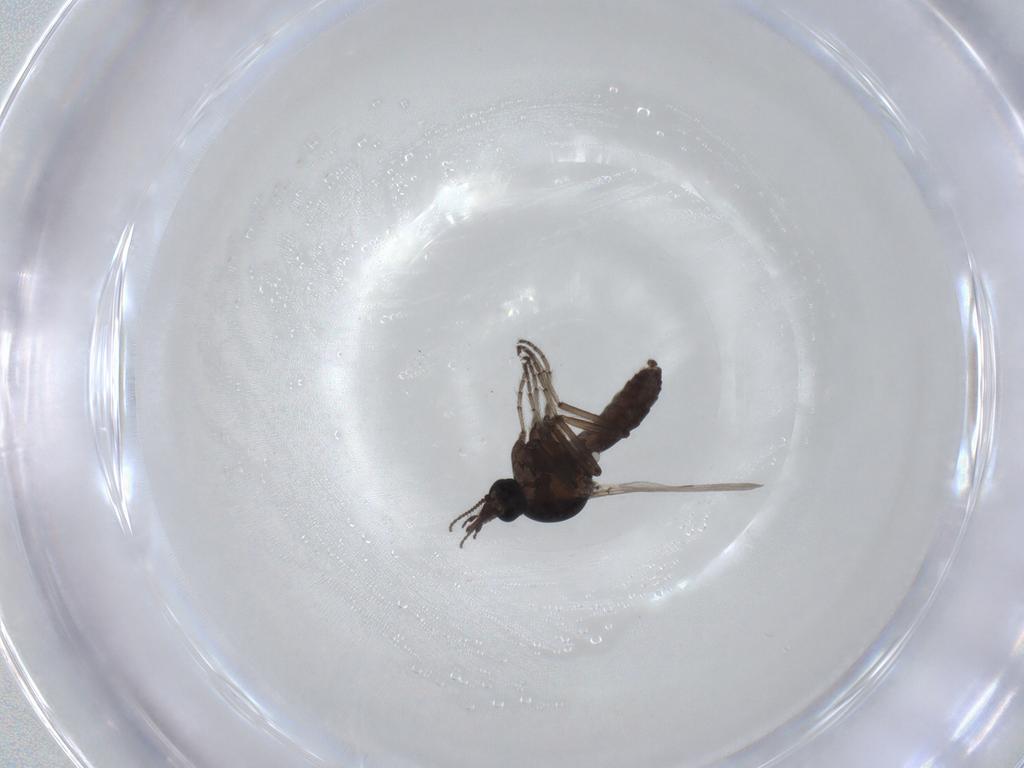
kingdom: Animalia
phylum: Arthropoda
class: Insecta
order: Diptera
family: Ceratopogonidae
